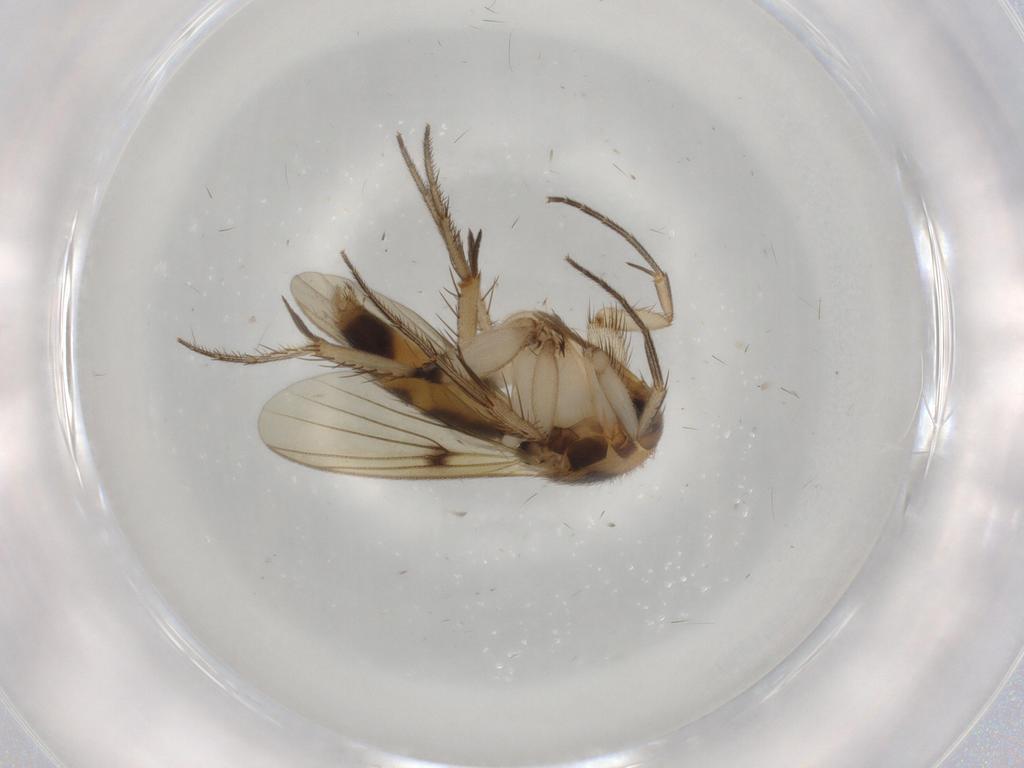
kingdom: Animalia
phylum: Arthropoda
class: Insecta
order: Diptera
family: Mycetophilidae
